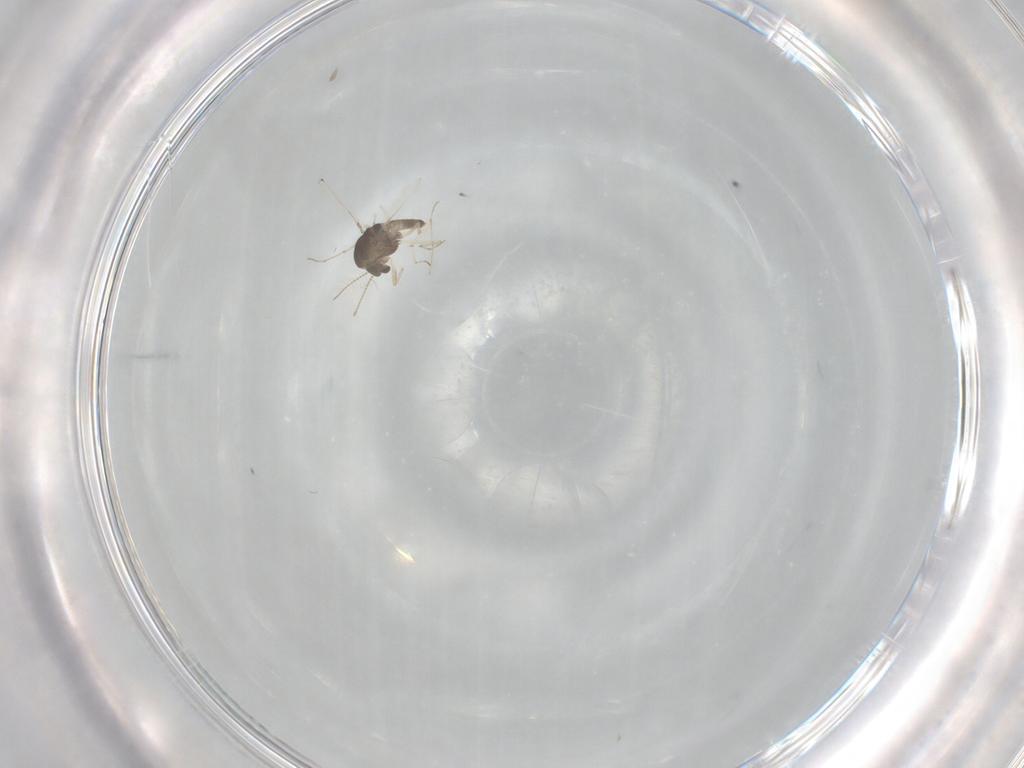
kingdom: Animalia
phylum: Arthropoda
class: Insecta
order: Diptera
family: Chironomidae
